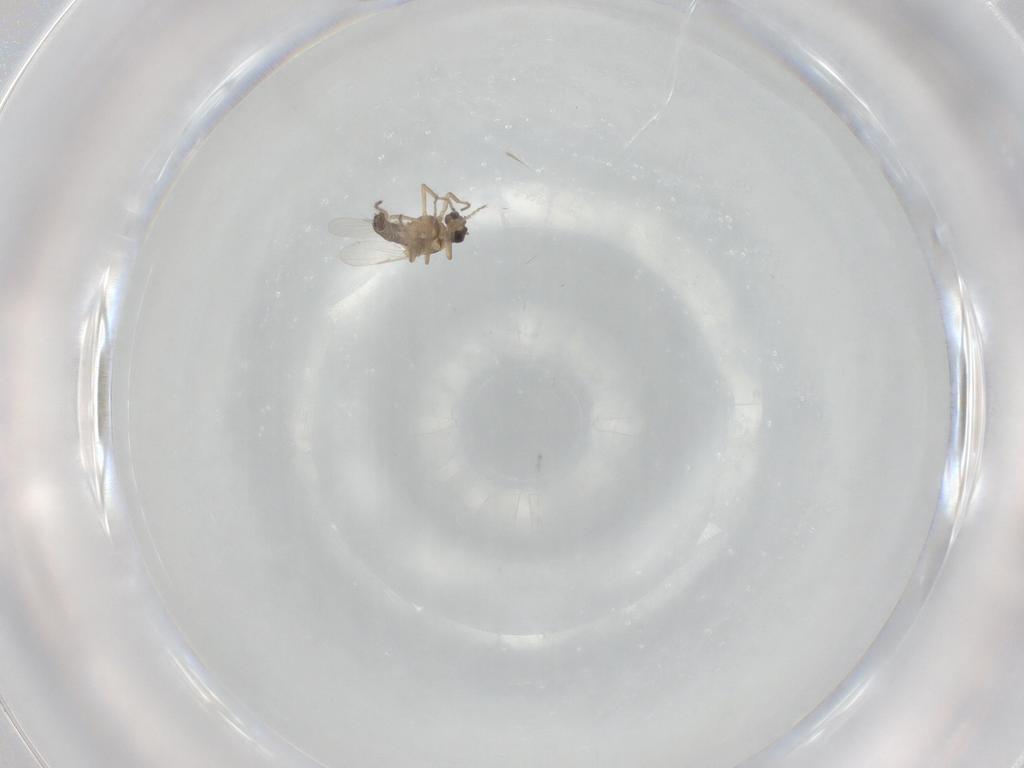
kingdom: Animalia
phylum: Arthropoda
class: Insecta
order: Diptera
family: Ceratopogonidae
